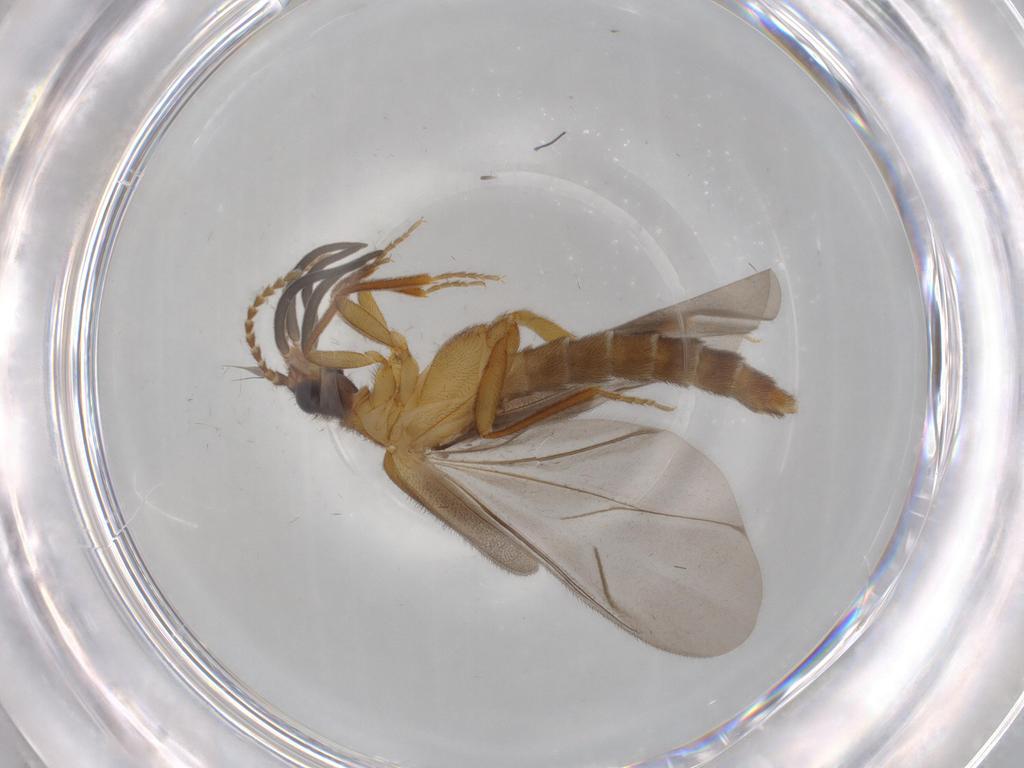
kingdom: Animalia
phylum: Arthropoda
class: Insecta
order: Coleoptera
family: Omethidae
